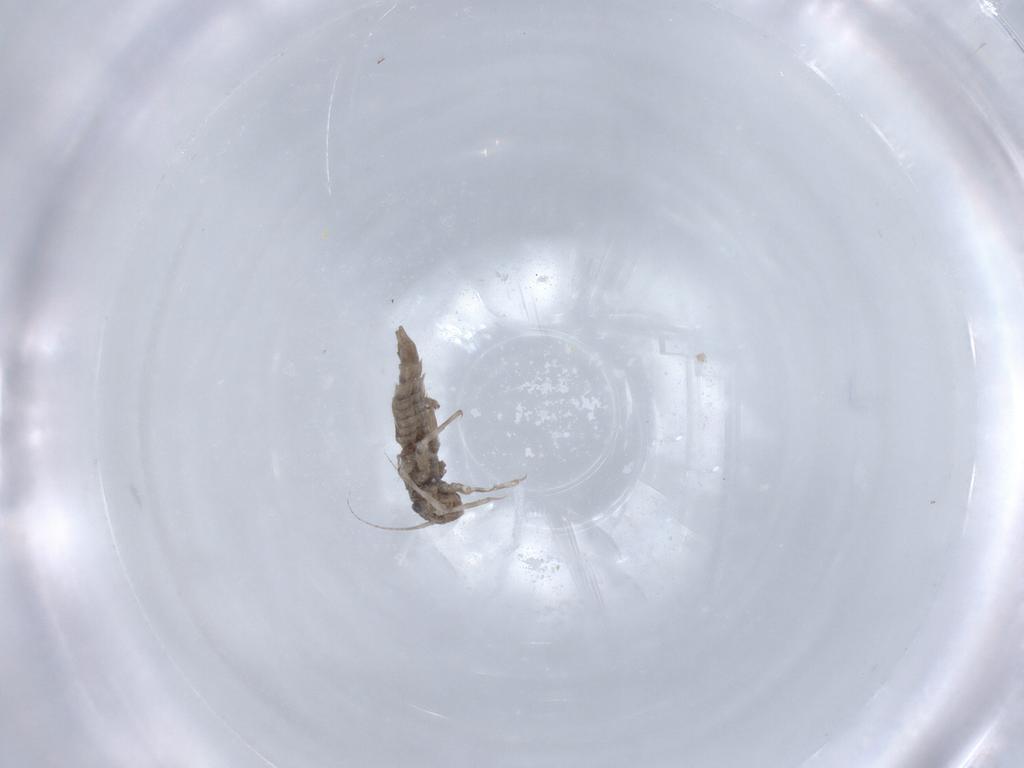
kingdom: Animalia
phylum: Arthropoda
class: Insecta
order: Ephemeroptera
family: Caenidae
